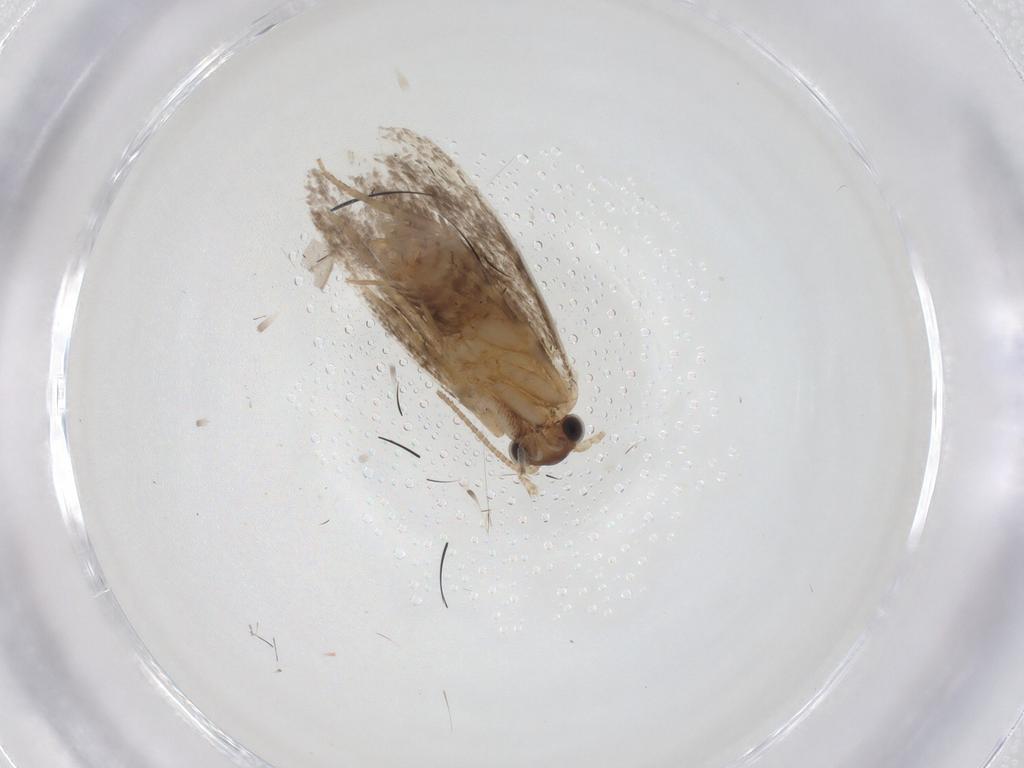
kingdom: Animalia
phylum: Arthropoda
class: Insecta
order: Lepidoptera
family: Dryadaulidae
